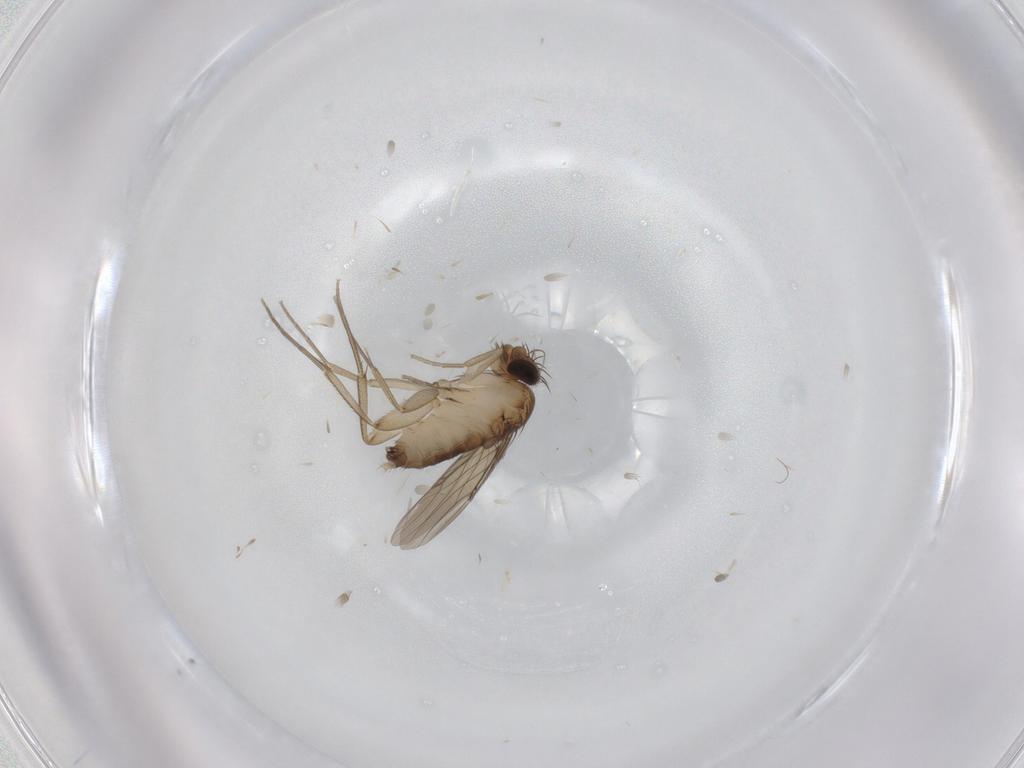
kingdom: Animalia
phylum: Arthropoda
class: Insecta
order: Diptera
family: Phoridae
